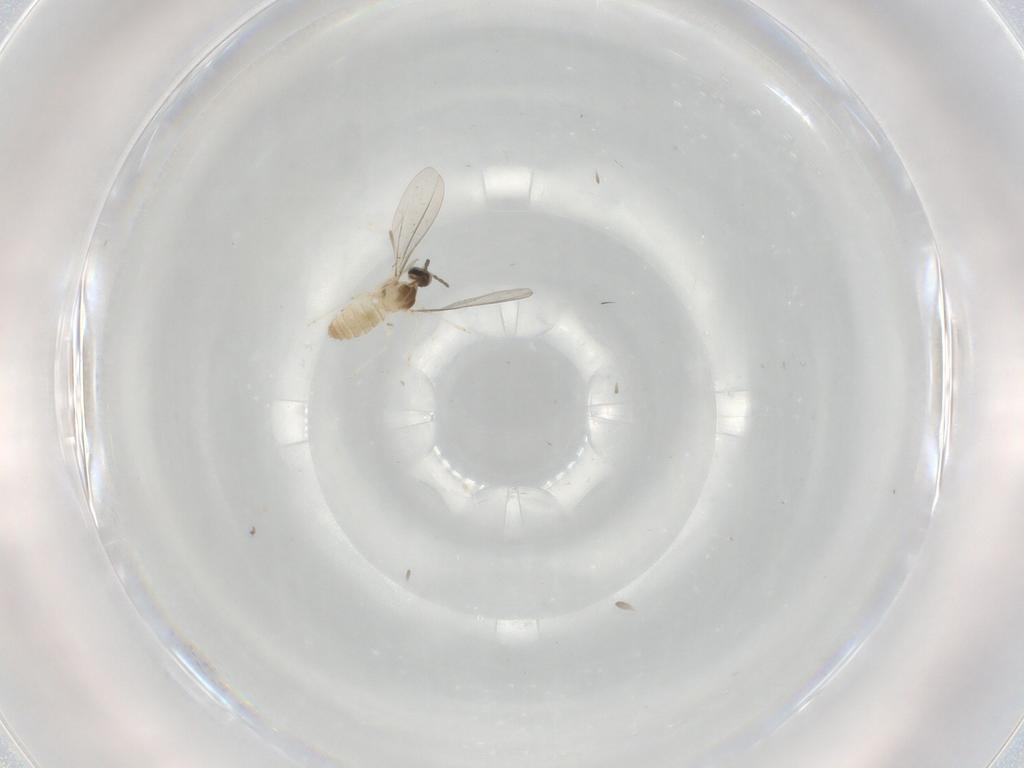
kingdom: Animalia
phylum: Arthropoda
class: Insecta
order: Diptera
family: Cecidomyiidae
